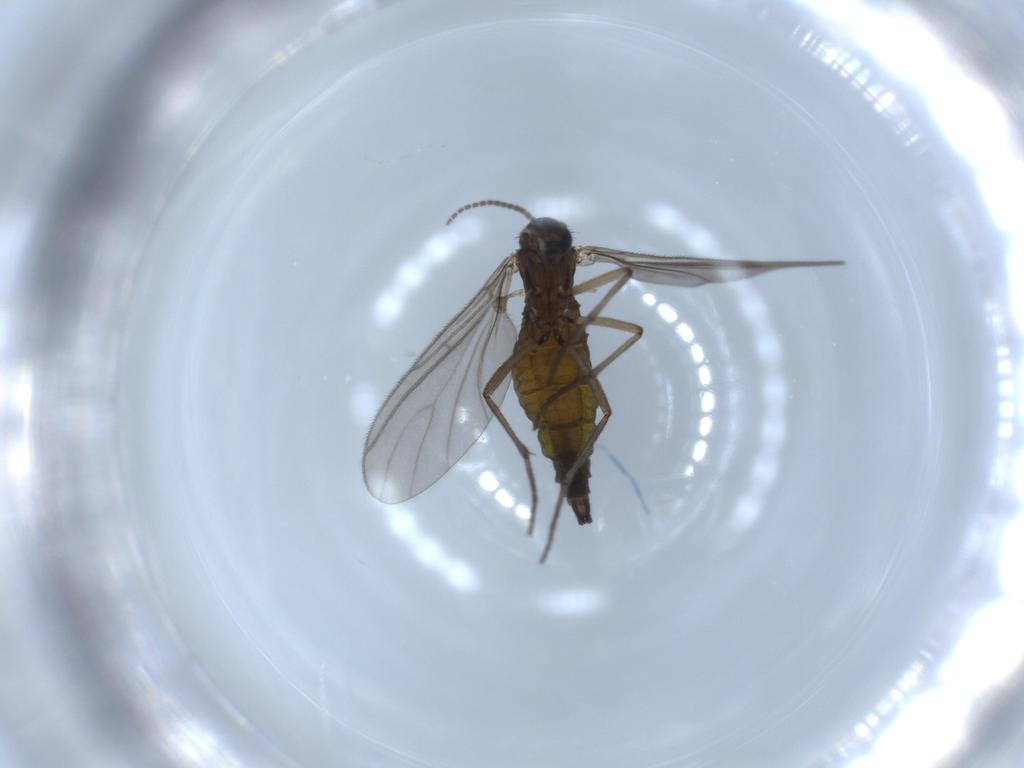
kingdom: Animalia
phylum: Arthropoda
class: Insecta
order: Diptera
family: Sciaridae
